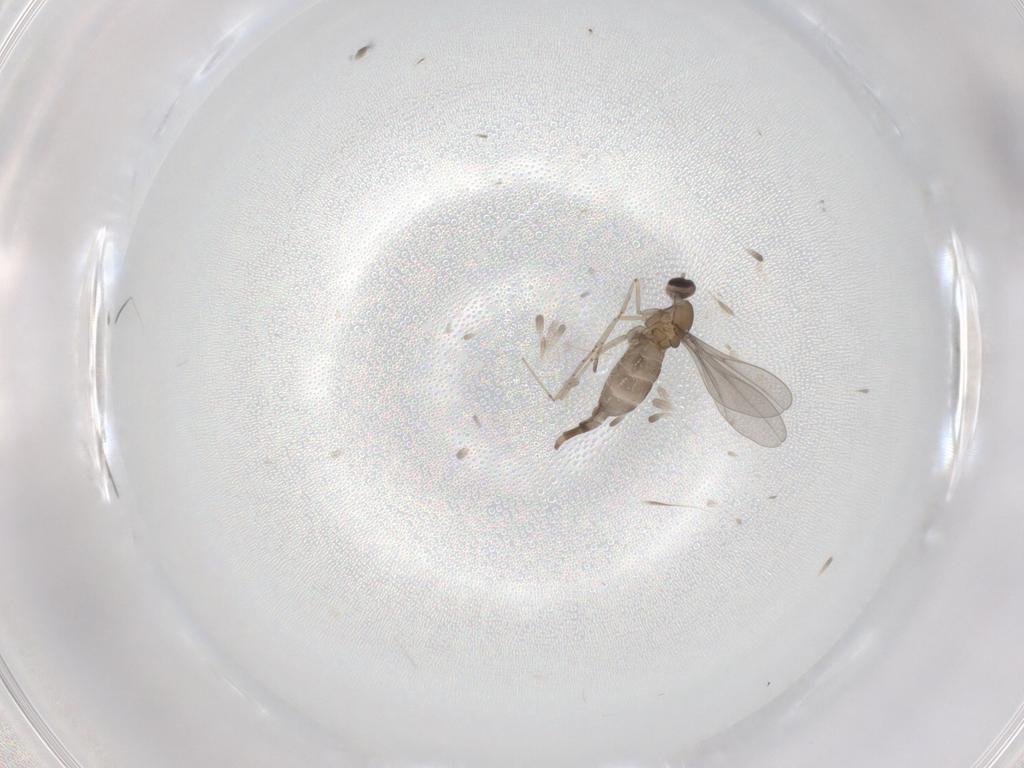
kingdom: Animalia
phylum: Arthropoda
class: Insecta
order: Diptera
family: Cecidomyiidae
